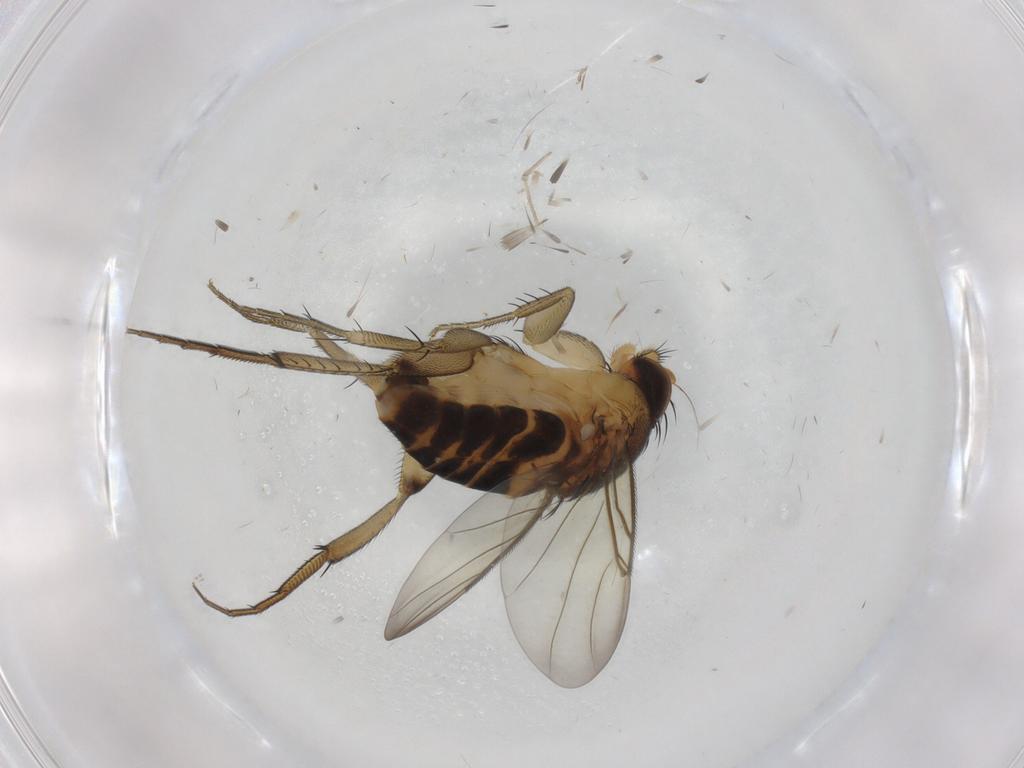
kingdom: Animalia
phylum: Arthropoda
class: Insecta
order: Diptera
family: Phoridae
